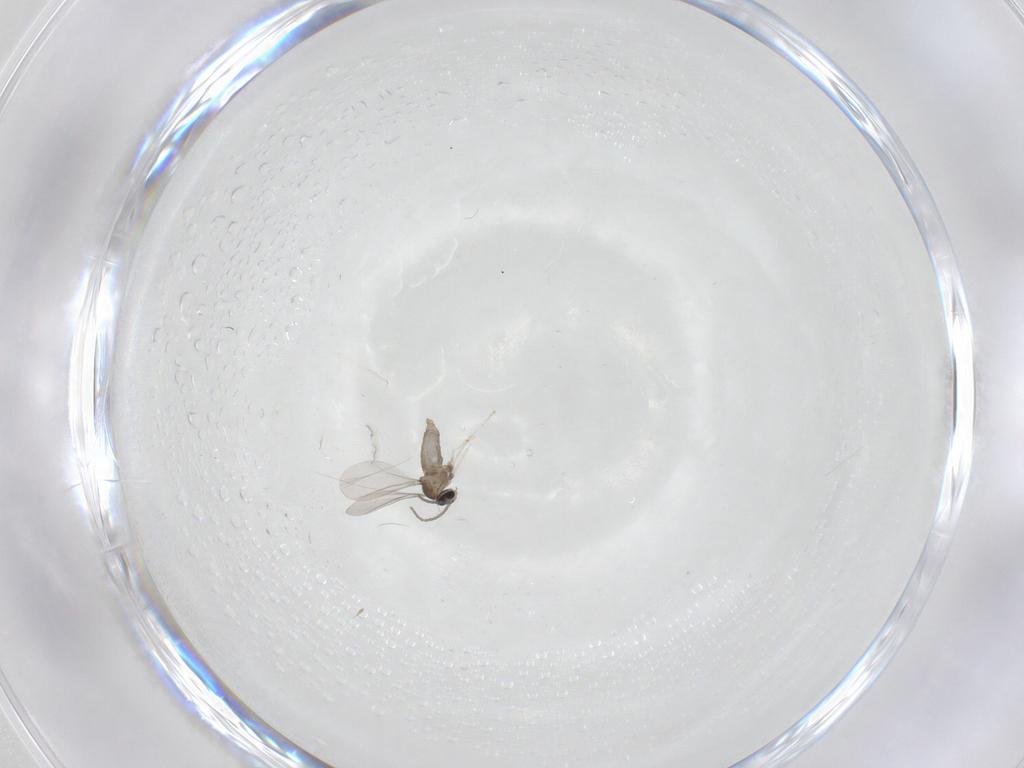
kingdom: Animalia
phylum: Arthropoda
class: Insecta
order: Diptera
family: Cecidomyiidae
